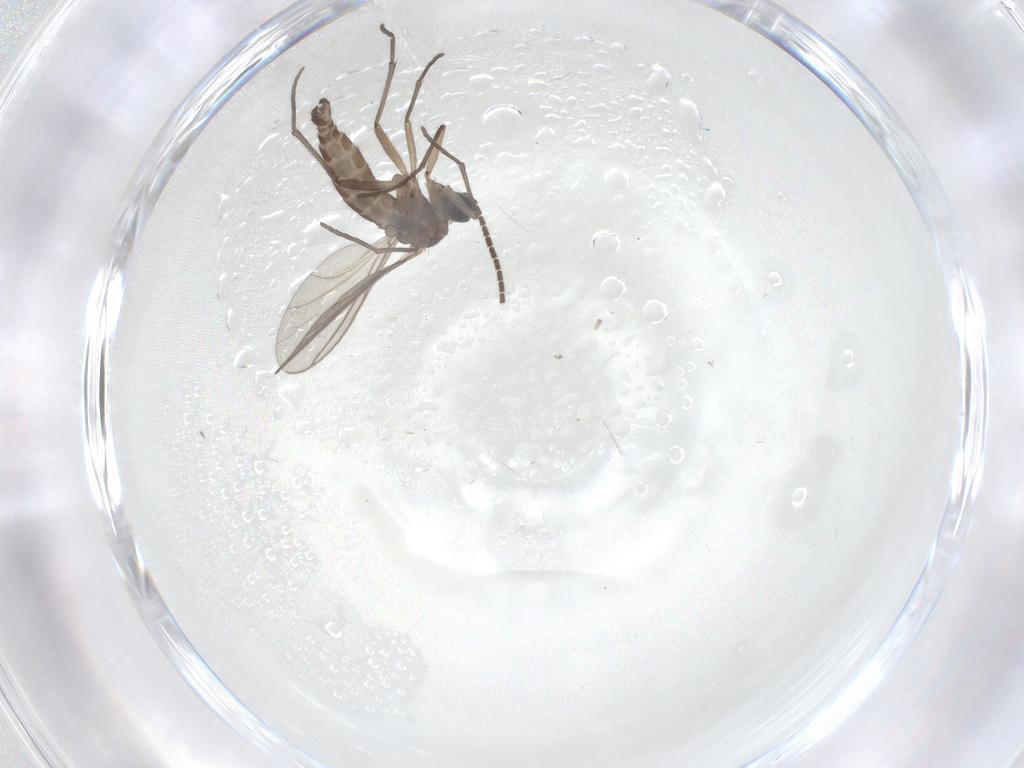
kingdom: Animalia
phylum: Arthropoda
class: Insecta
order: Diptera
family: Sciaridae
